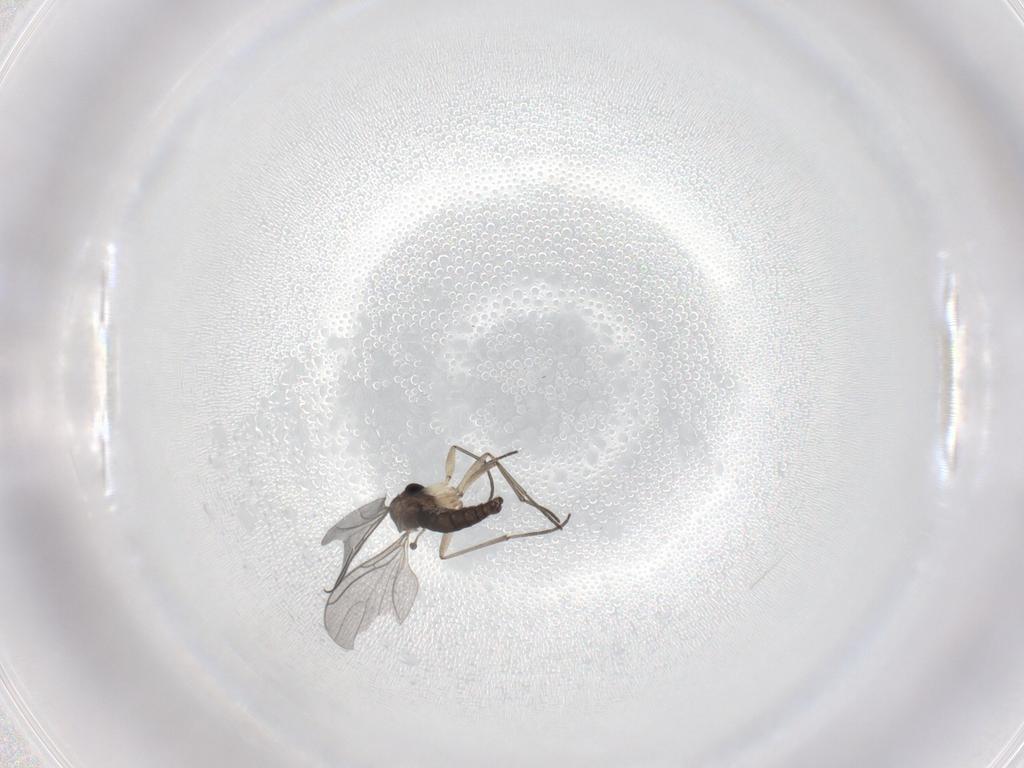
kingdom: Animalia
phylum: Arthropoda
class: Insecta
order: Diptera
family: Sciaridae
